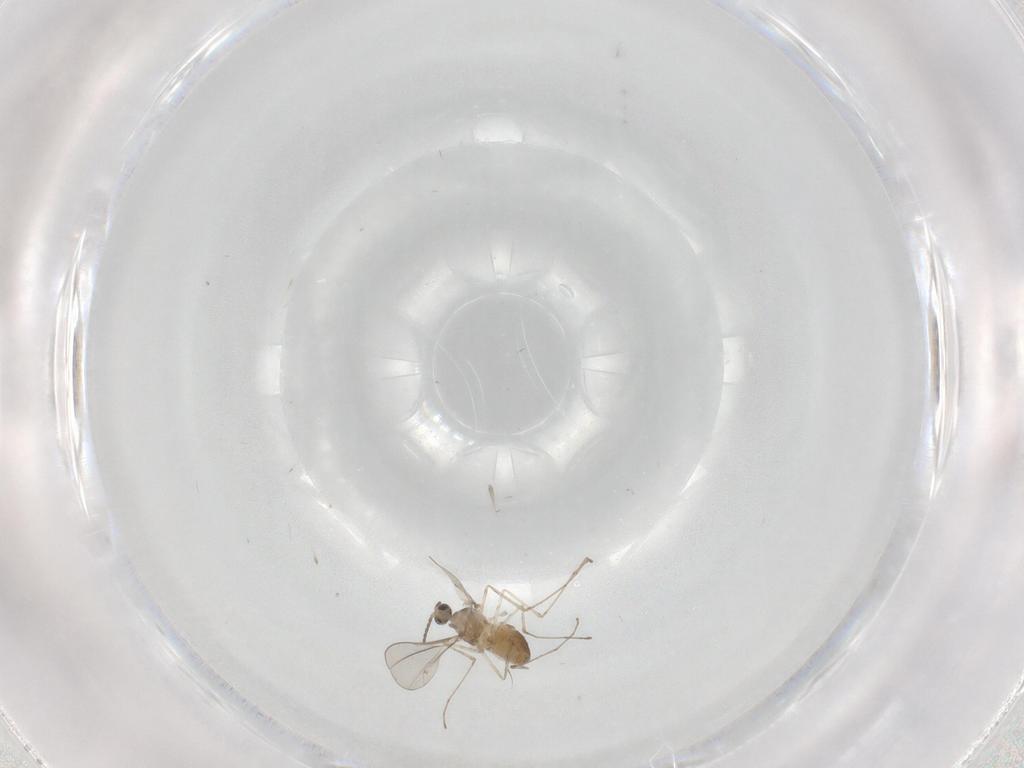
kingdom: Animalia
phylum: Arthropoda
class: Insecta
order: Diptera
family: Cecidomyiidae
